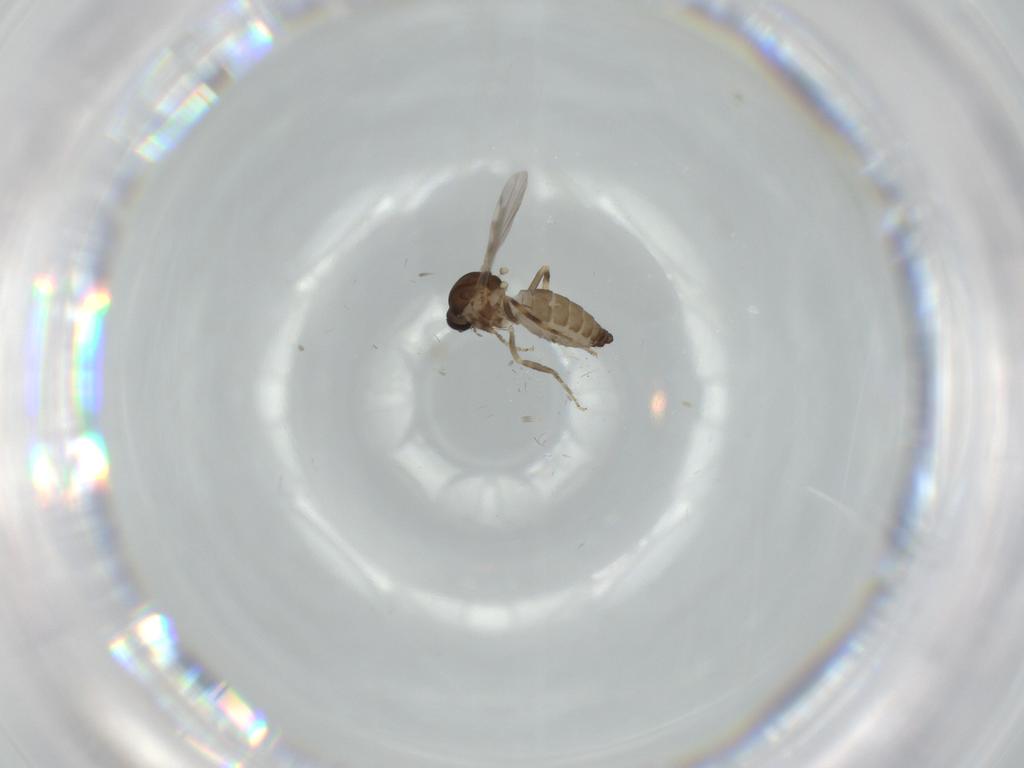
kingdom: Animalia
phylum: Arthropoda
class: Insecta
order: Diptera
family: Ceratopogonidae
